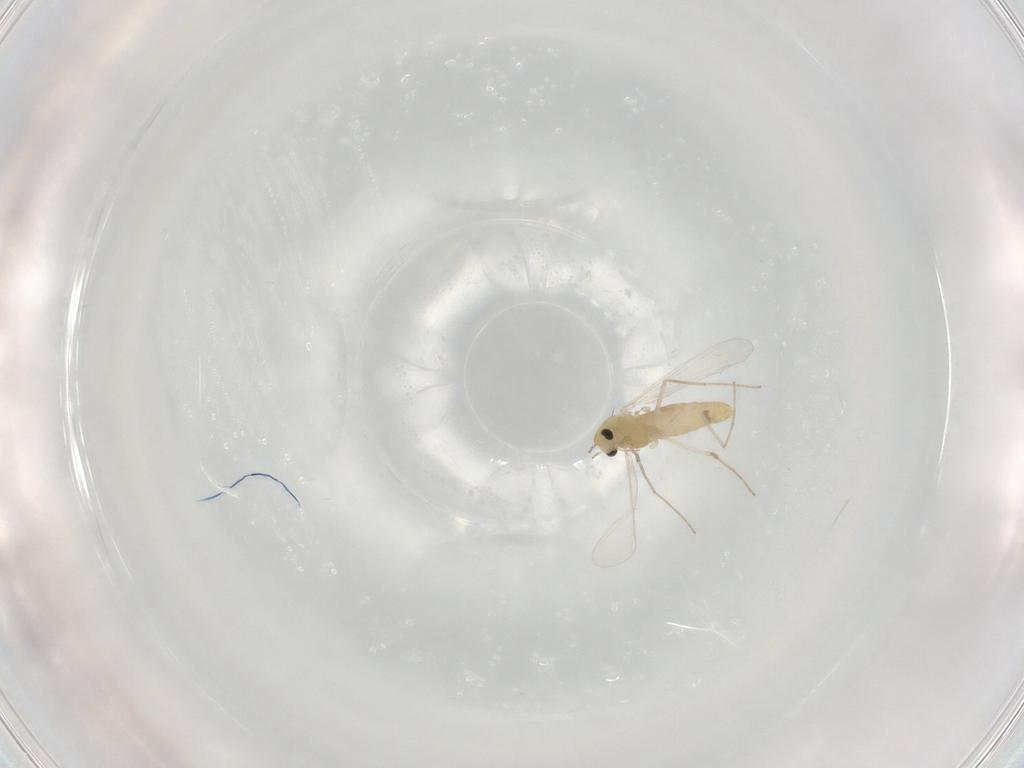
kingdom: Animalia
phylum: Arthropoda
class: Insecta
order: Diptera
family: Chironomidae
